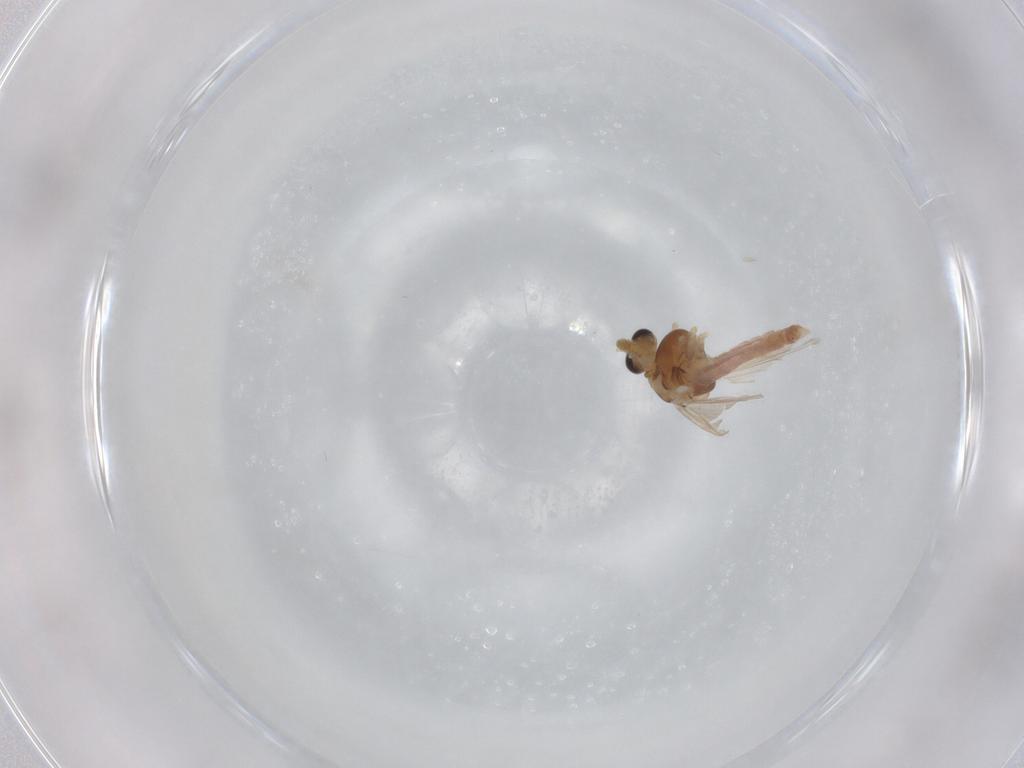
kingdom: Animalia
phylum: Arthropoda
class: Insecta
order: Diptera
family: Chironomidae
